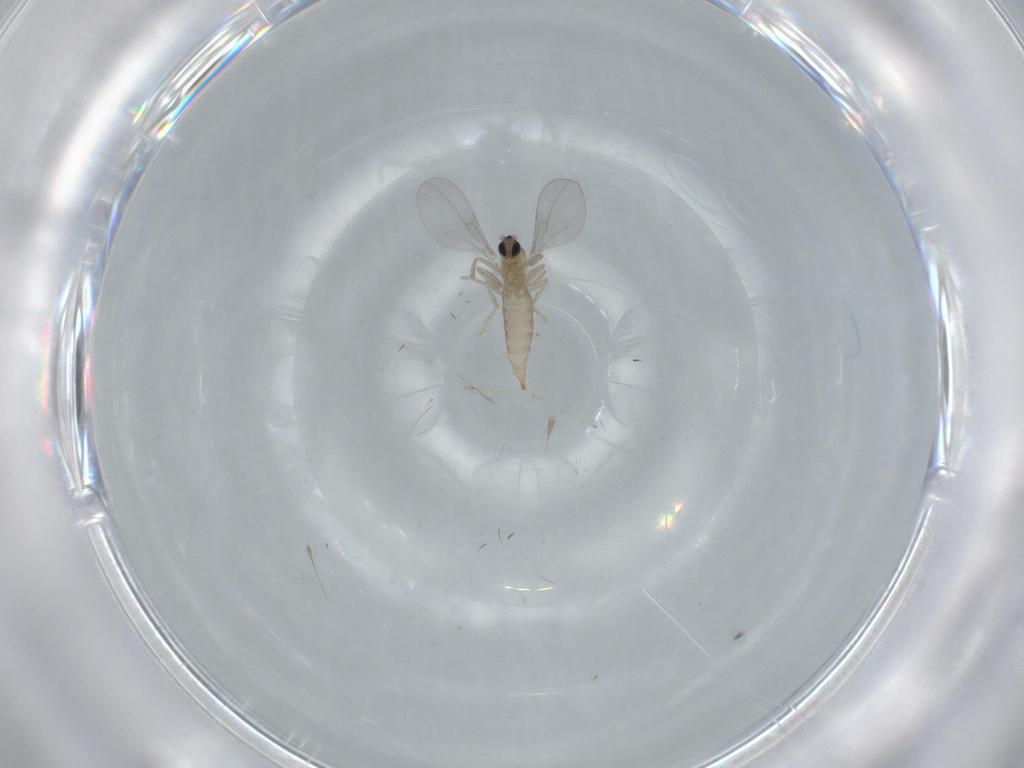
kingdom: Animalia
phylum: Arthropoda
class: Insecta
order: Diptera
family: Cecidomyiidae
